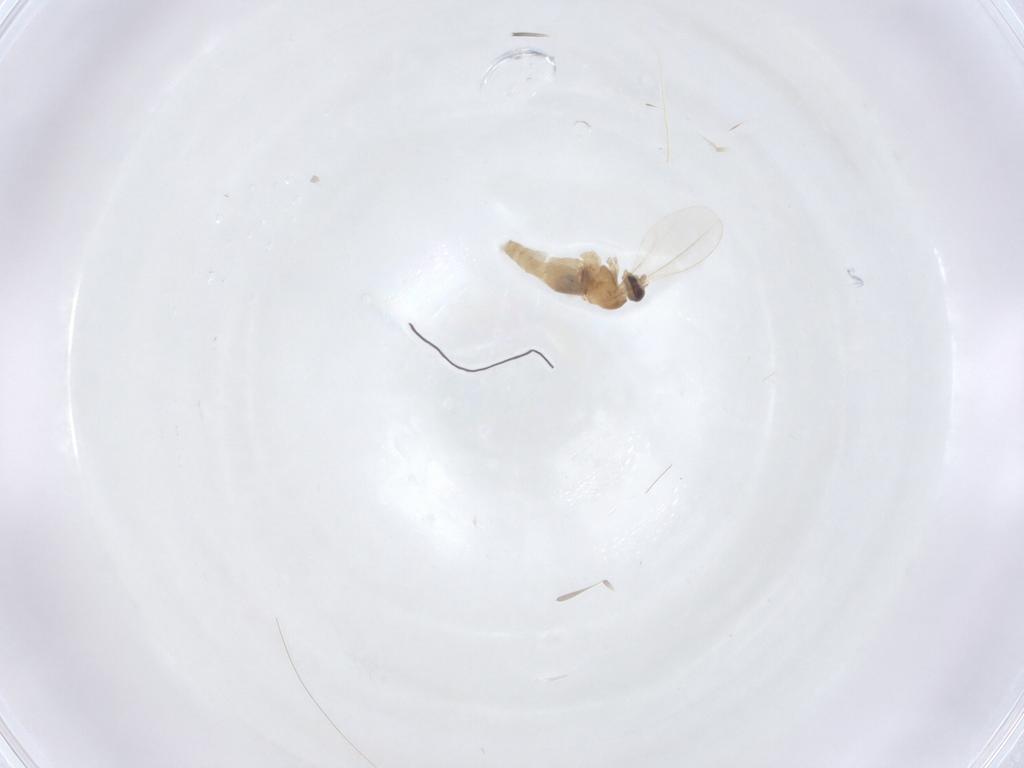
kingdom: Animalia
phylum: Arthropoda
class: Insecta
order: Diptera
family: Cecidomyiidae
